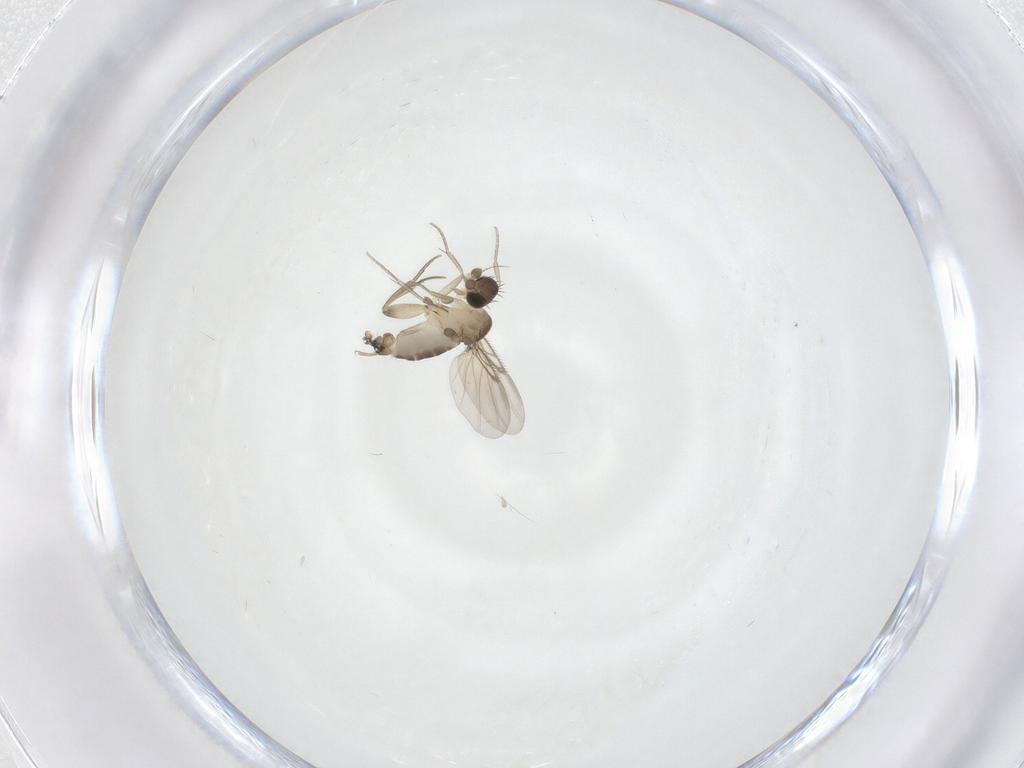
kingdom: Animalia
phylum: Arthropoda
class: Insecta
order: Diptera
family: Phoridae
